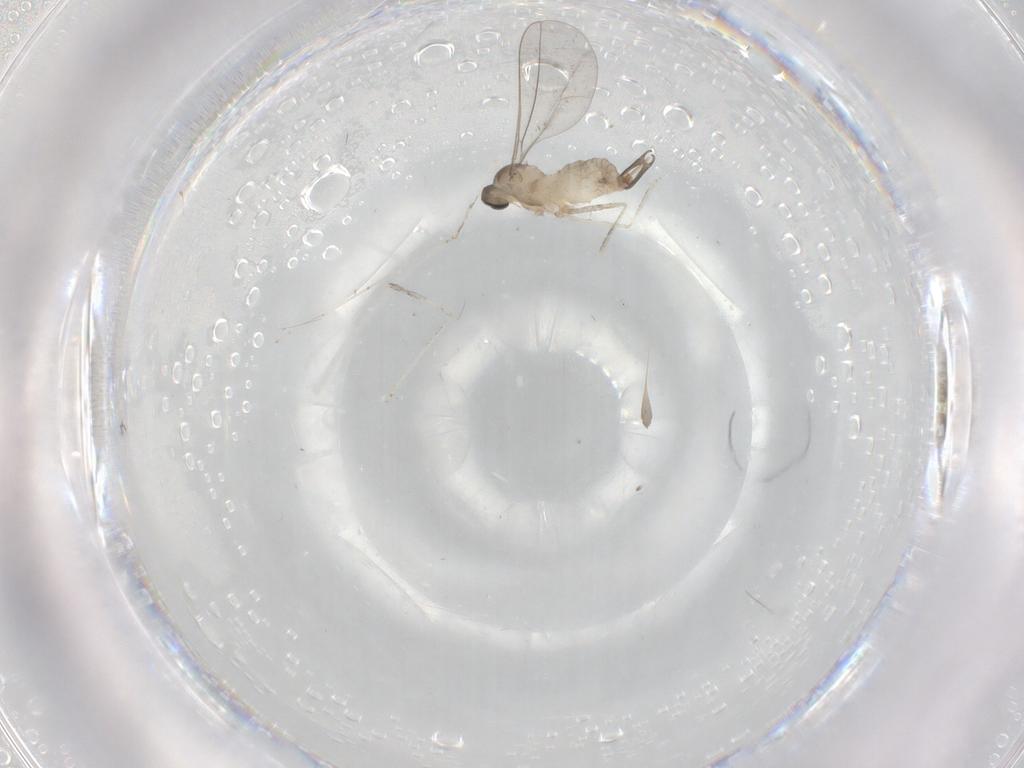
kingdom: Animalia
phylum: Arthropoda
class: Insecta
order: Diptera
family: Cecidomyiidae
